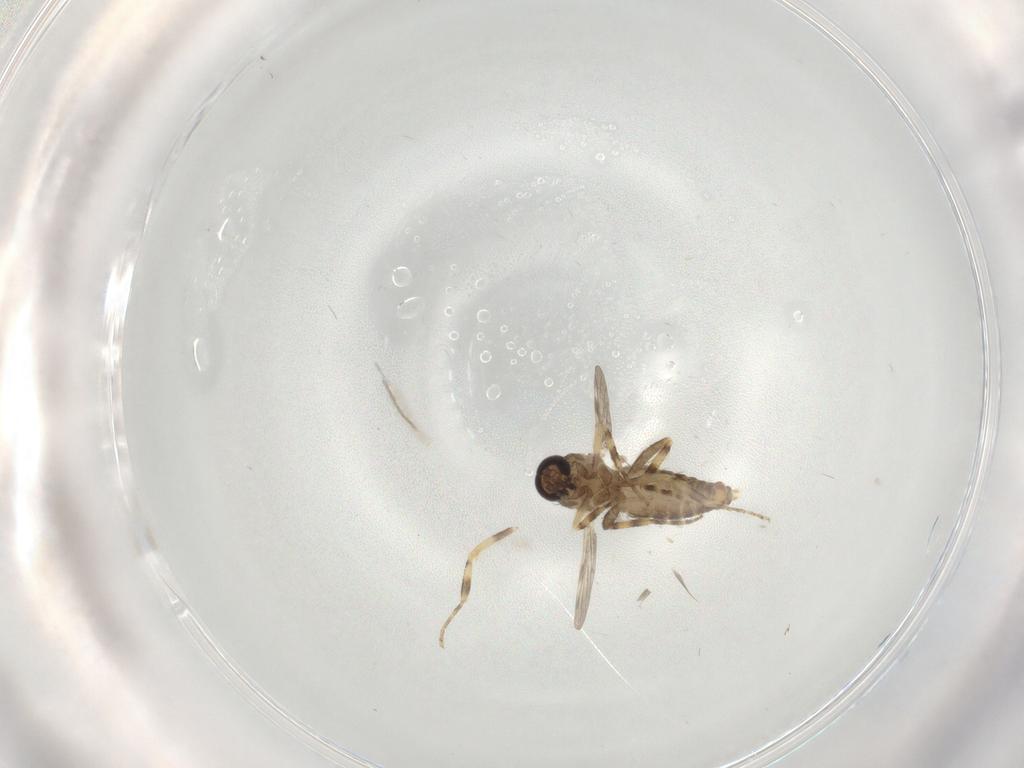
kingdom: Animalia
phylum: Arthropoda
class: Insecta
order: Diptera
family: Ceratopogonidae
